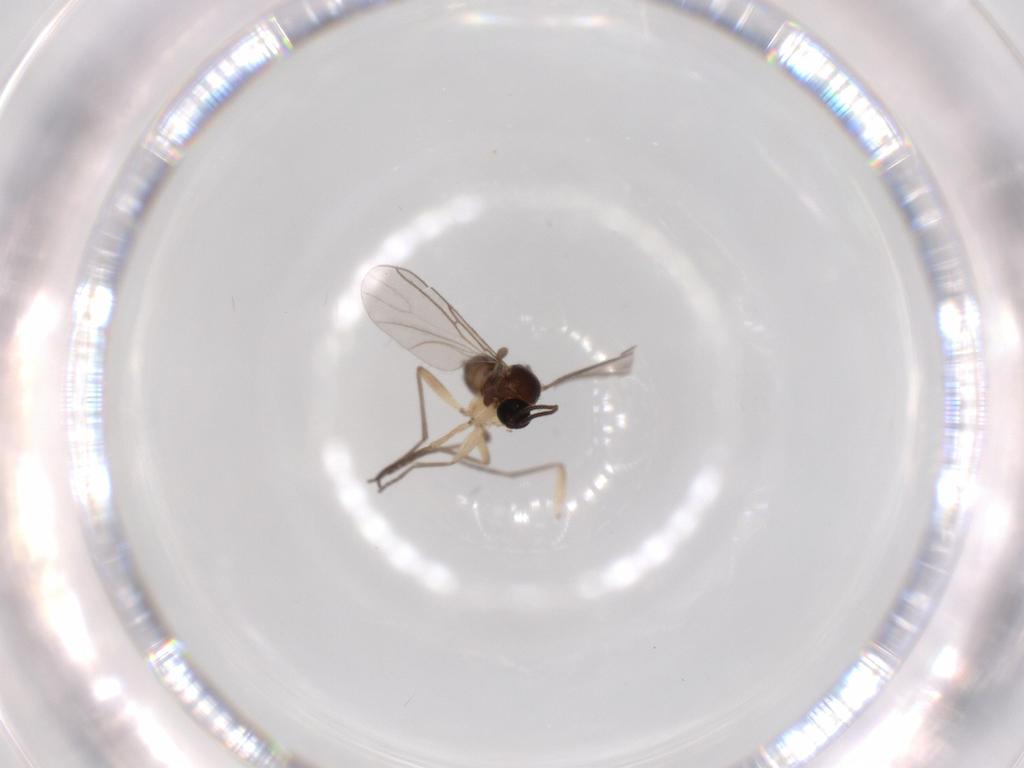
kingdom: Animalia
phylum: Arthropoda
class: Insecta
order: Diptera
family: Sciaridae
